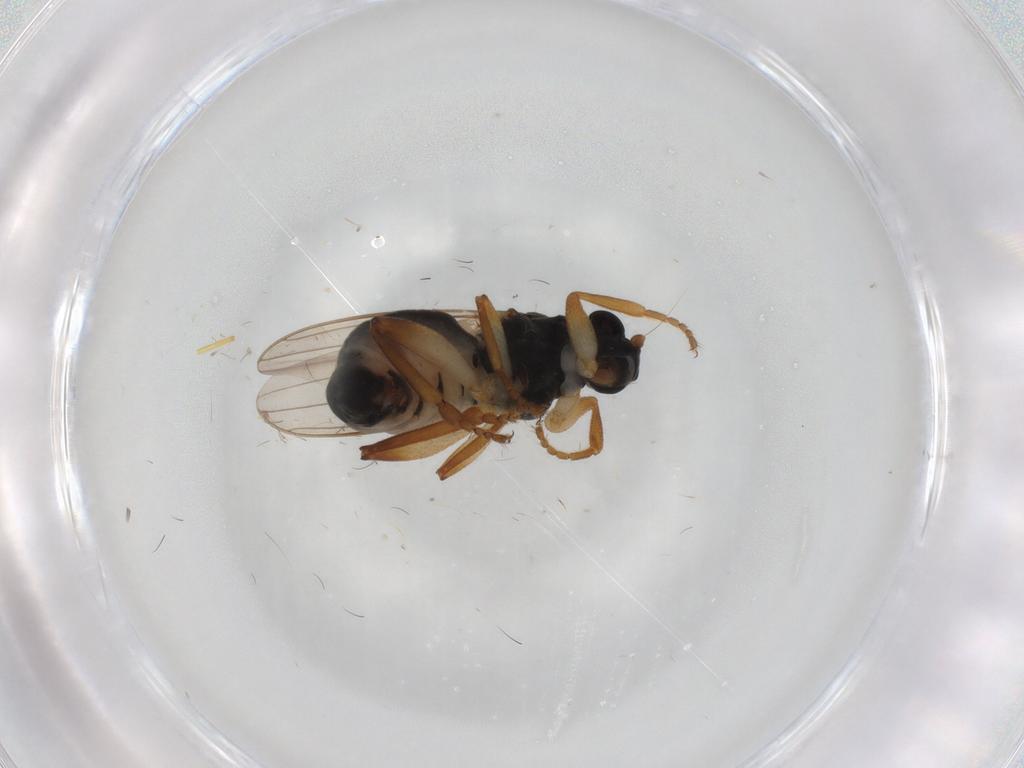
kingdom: Animalia
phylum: Arthropoda
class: Insecta
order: Diptera
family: Sphaeroceridae
